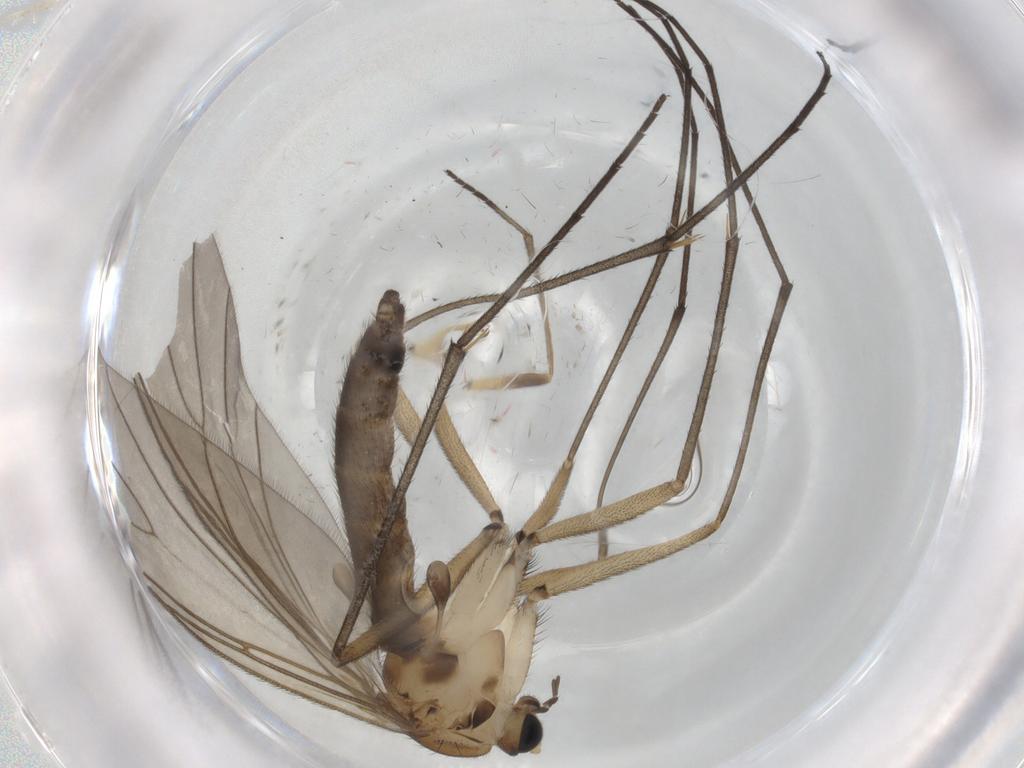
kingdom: Animalia
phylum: Arthropoda
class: Insecta
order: Diptera
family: Sciaridae
